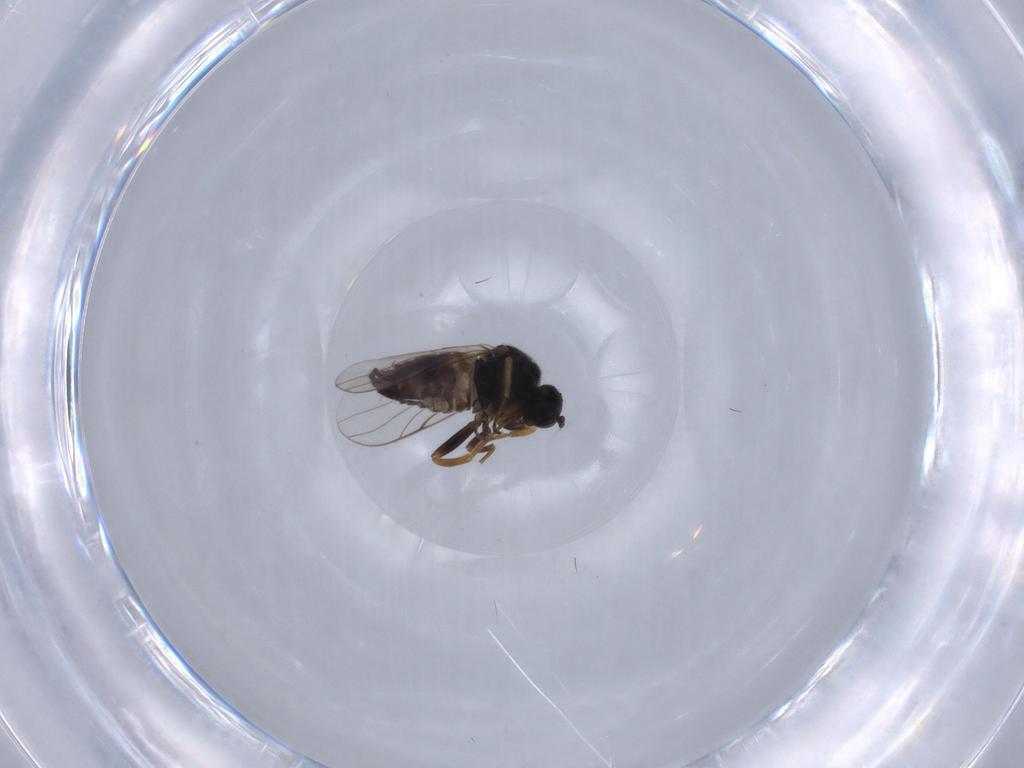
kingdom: Animalia
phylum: Arthropoda
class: Insecta
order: Diptera
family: Hybotidae
